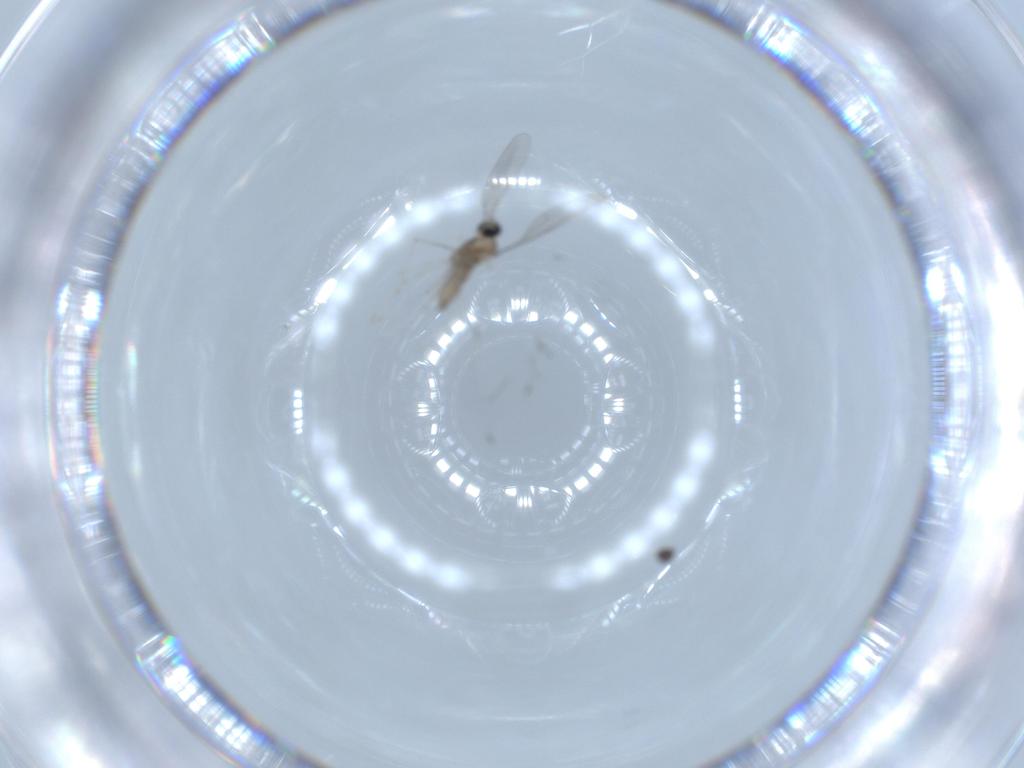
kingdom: Animalia
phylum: Arthropoda
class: Insecta
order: Diptera
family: Cecidomyiidae
